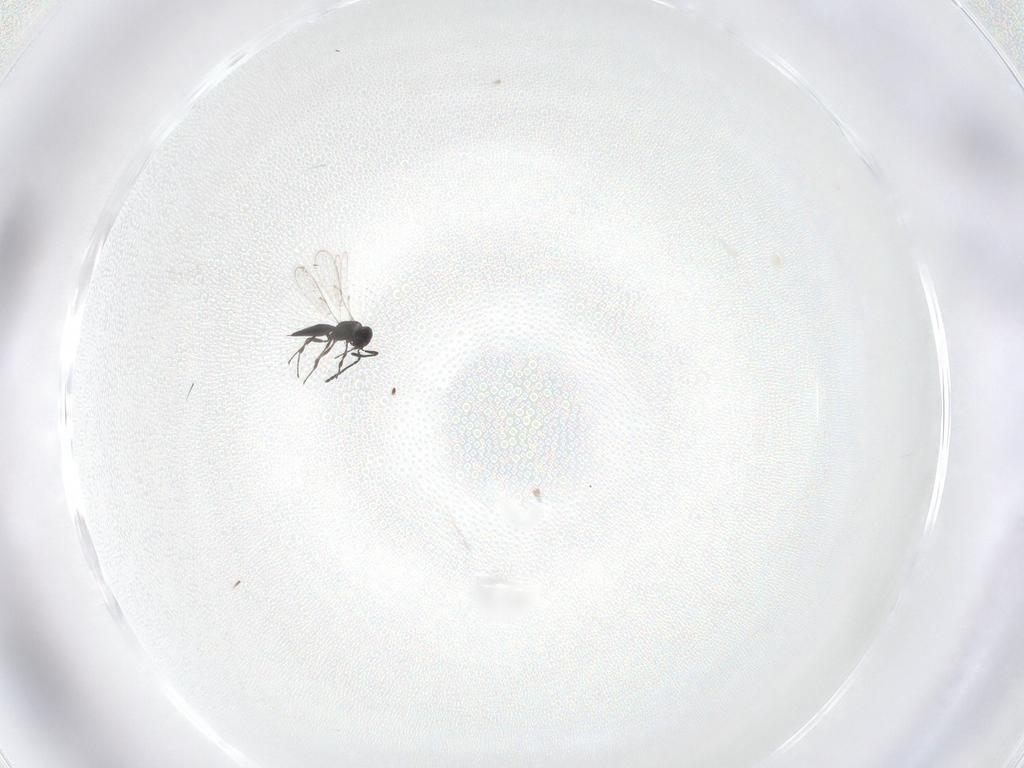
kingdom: Animalia
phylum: Arthropoda
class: Insecta
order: Hymenoptera
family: Scelionidae
